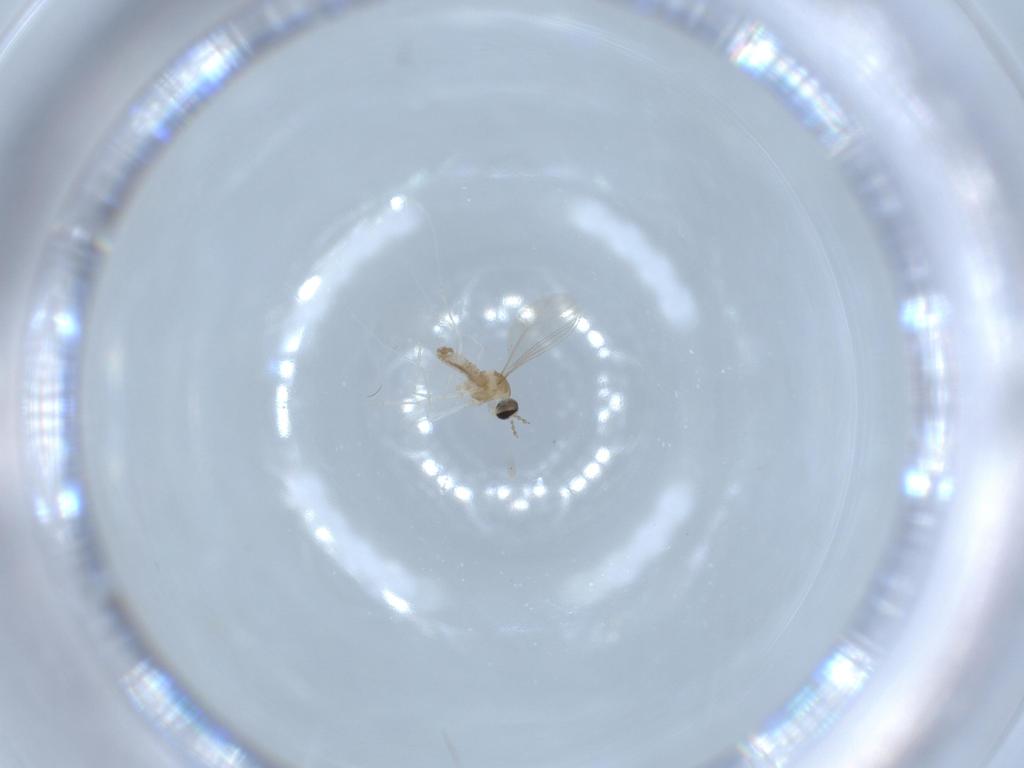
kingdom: Animalia
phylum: Arthropoda
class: Insecta
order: Diptera
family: Cecidomyiidae
